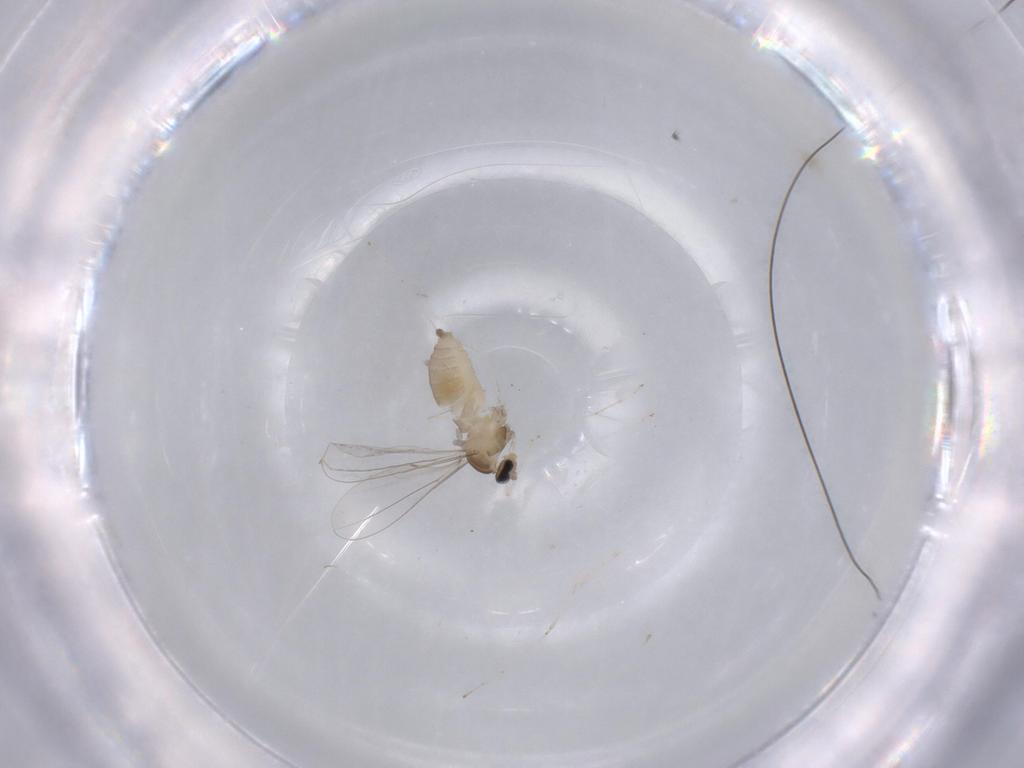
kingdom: Animalia
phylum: Arthropoda
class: Insecta
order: Diptera
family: Cecidomyiidae
